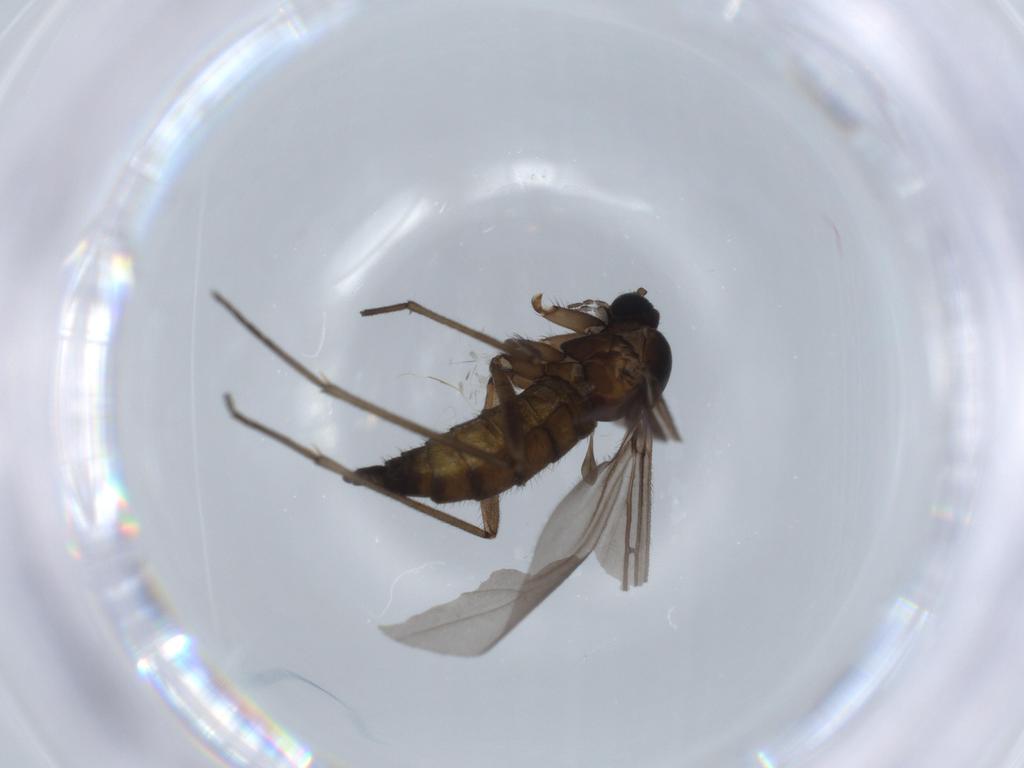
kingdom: Animalia
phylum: Arthropoda
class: Insecta
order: Diptera
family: Sciaridae
